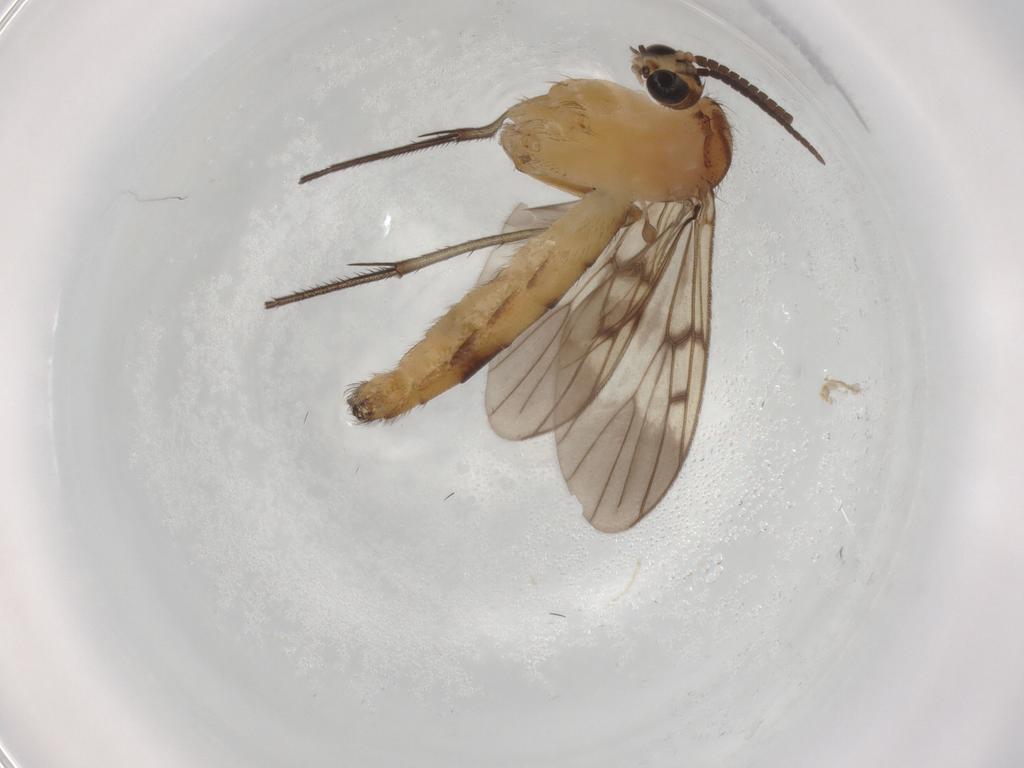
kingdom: Animalia
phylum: Arthropoda
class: Insecta
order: Diptera
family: Mycetophilidae
